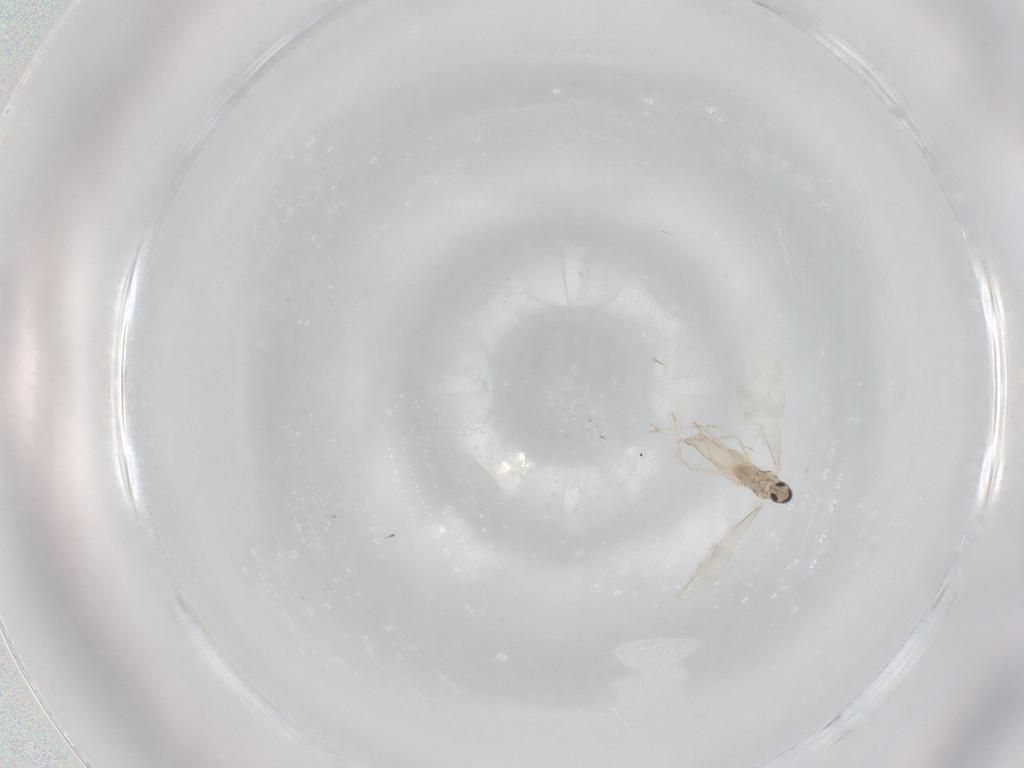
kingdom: Animalia
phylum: Arthropoda
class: Insecta
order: Diptera
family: Cecidomyiidae
